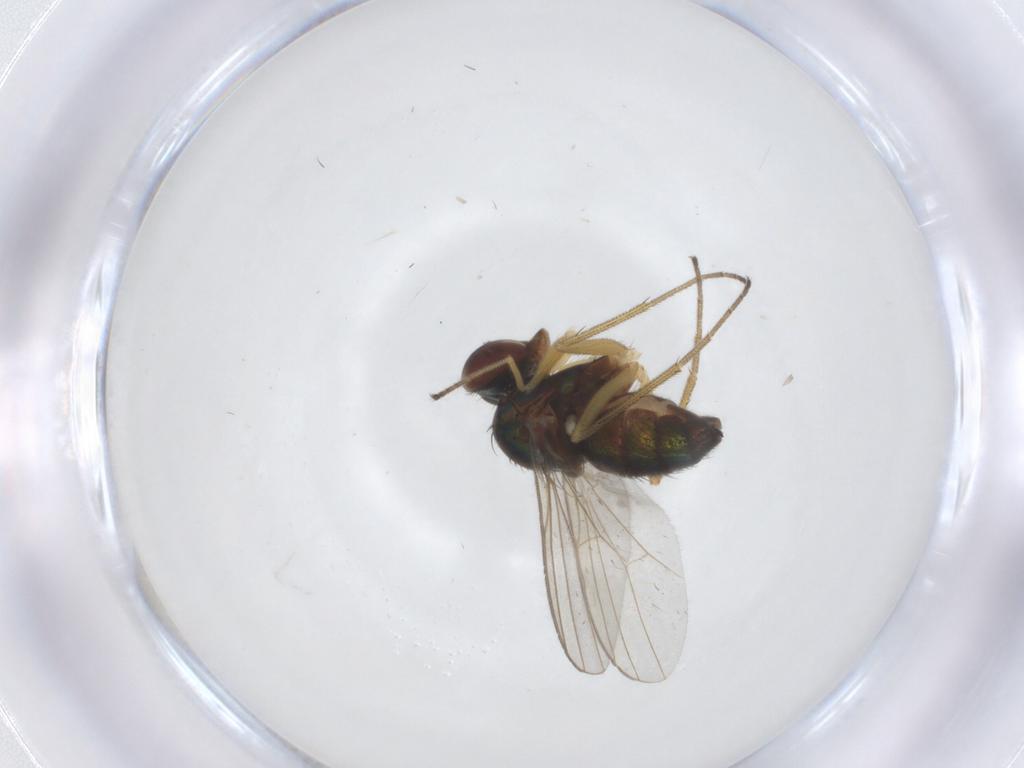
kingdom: Animalia
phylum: Arthropoda
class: Insecta
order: Diptera
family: Dolichopodidae
